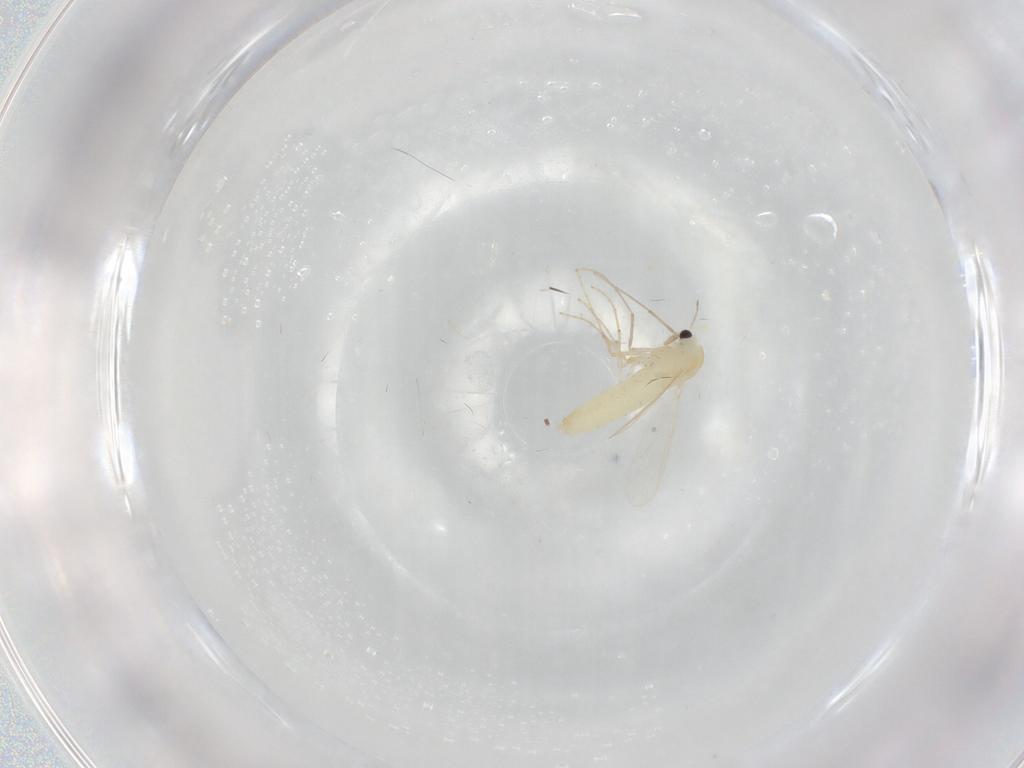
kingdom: Animalia
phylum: Arthropoda
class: Insecta
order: Diptera
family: Chironomidae
